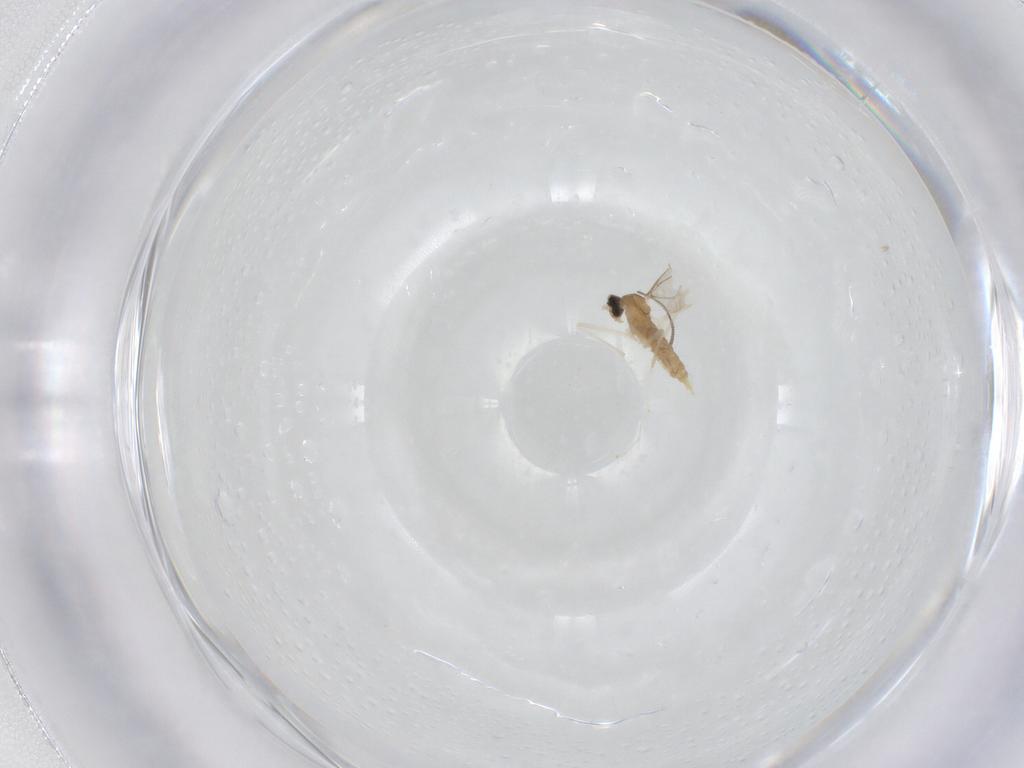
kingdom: Animalia
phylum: Arthropoda
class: Insecta
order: Diptera
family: Cecidomyiidae
